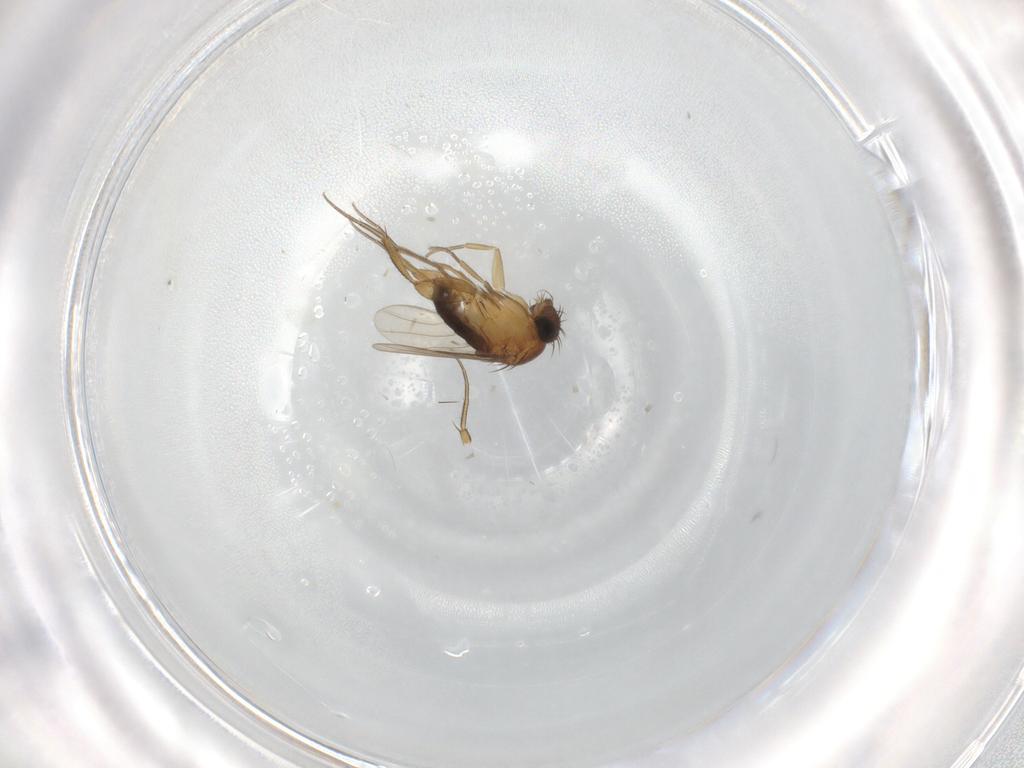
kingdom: Animalia
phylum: Arthropoda
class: Insecta
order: Diptera
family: Phoridae
